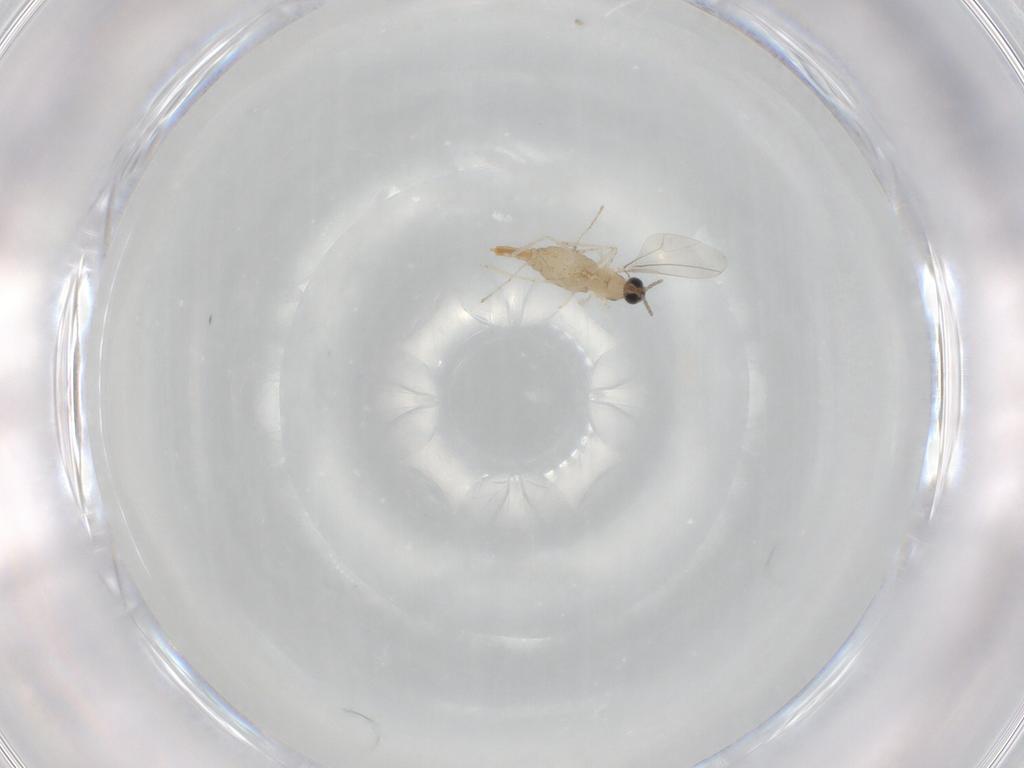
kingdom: Animalia
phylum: Arthropoda
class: Insecta
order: Diptera
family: Cecidomyiidae
